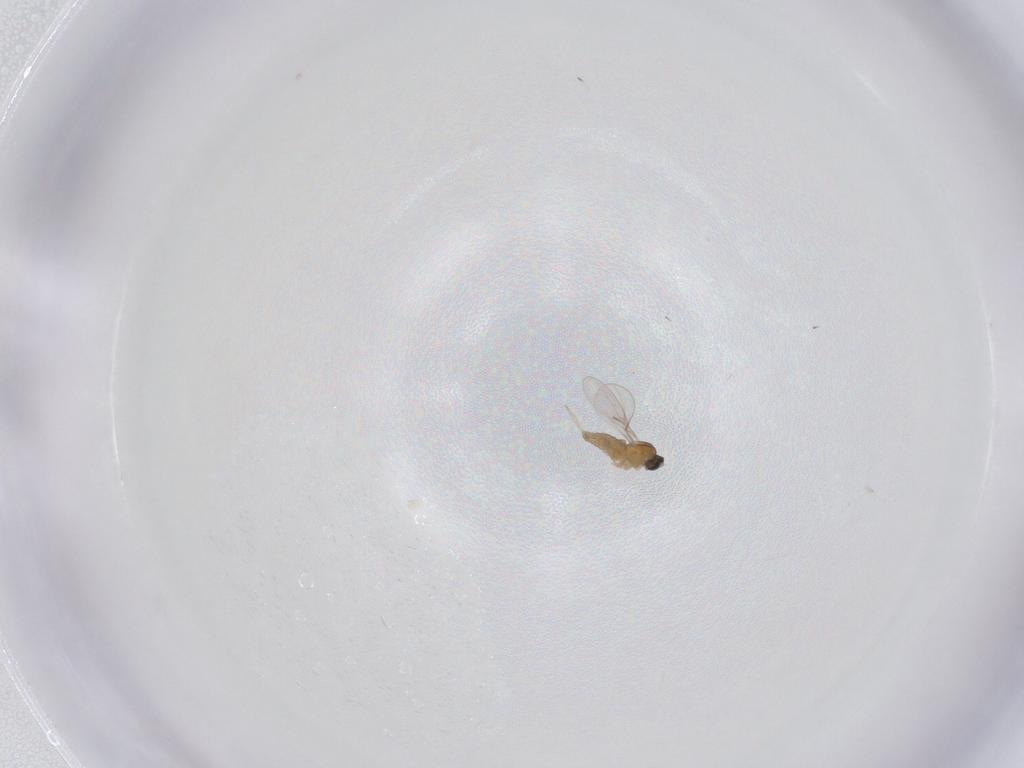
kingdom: Animalia
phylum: Arthropoda
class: Insecta
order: Diptera
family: Cecidomyiidae
